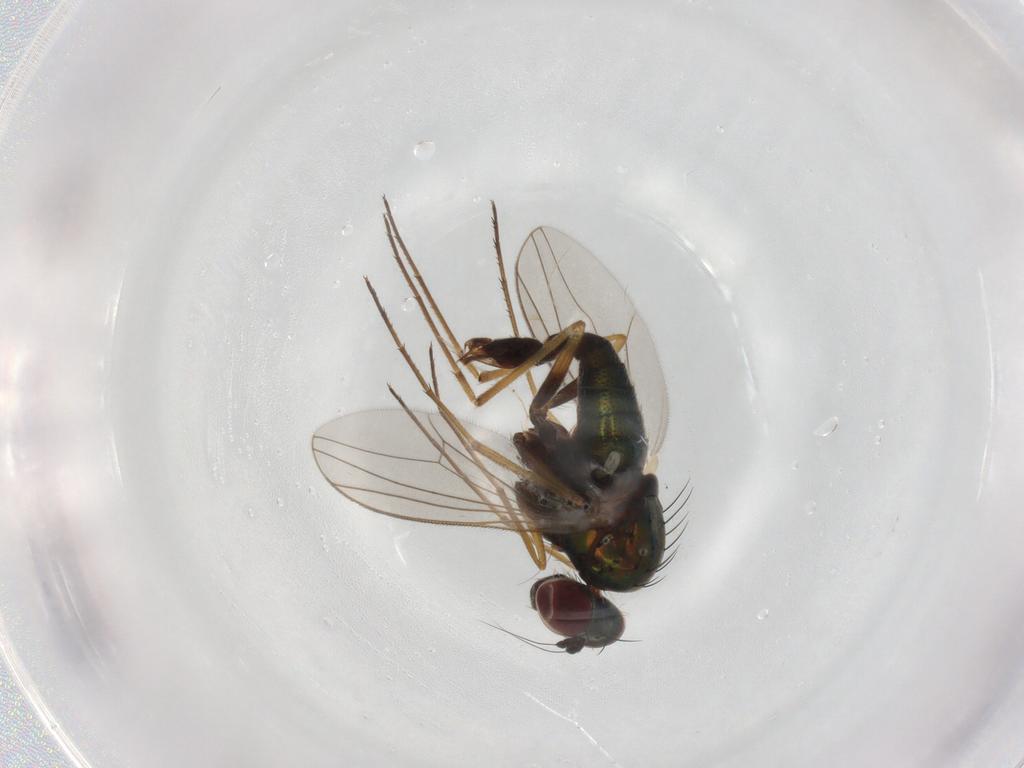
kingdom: Animalia
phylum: Arthropoda
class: Insecta
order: Diptera
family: Dolichopodidae
